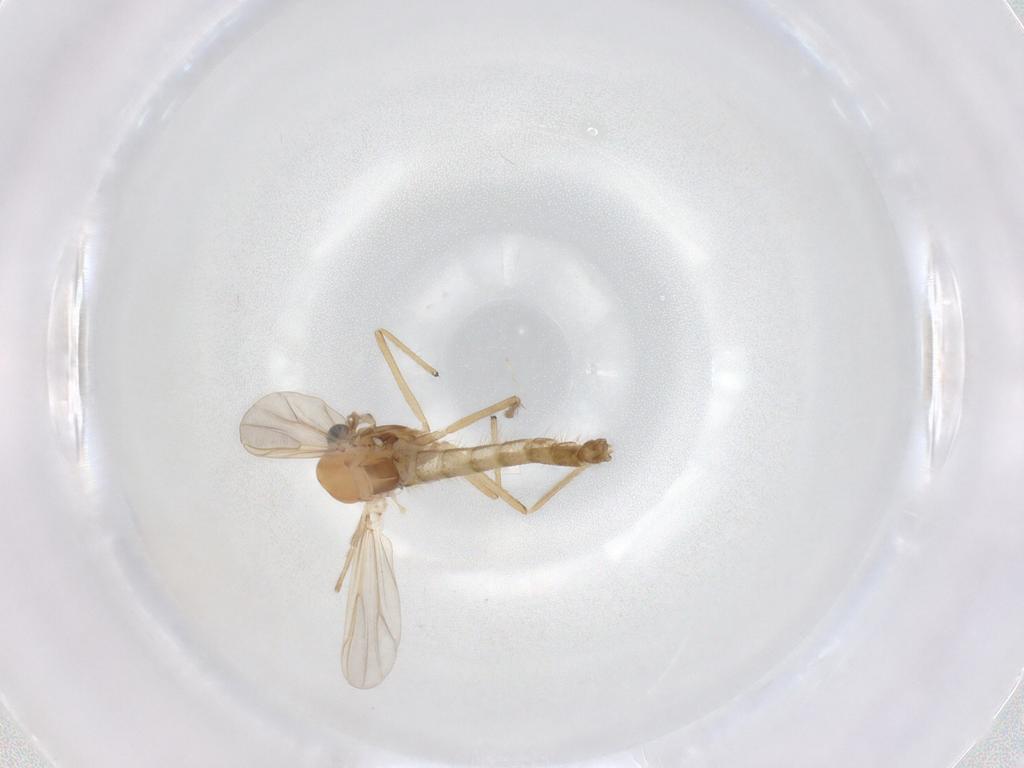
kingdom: Animalia
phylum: Arthropoda
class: Insecta
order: Diptera
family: Chironomidae
